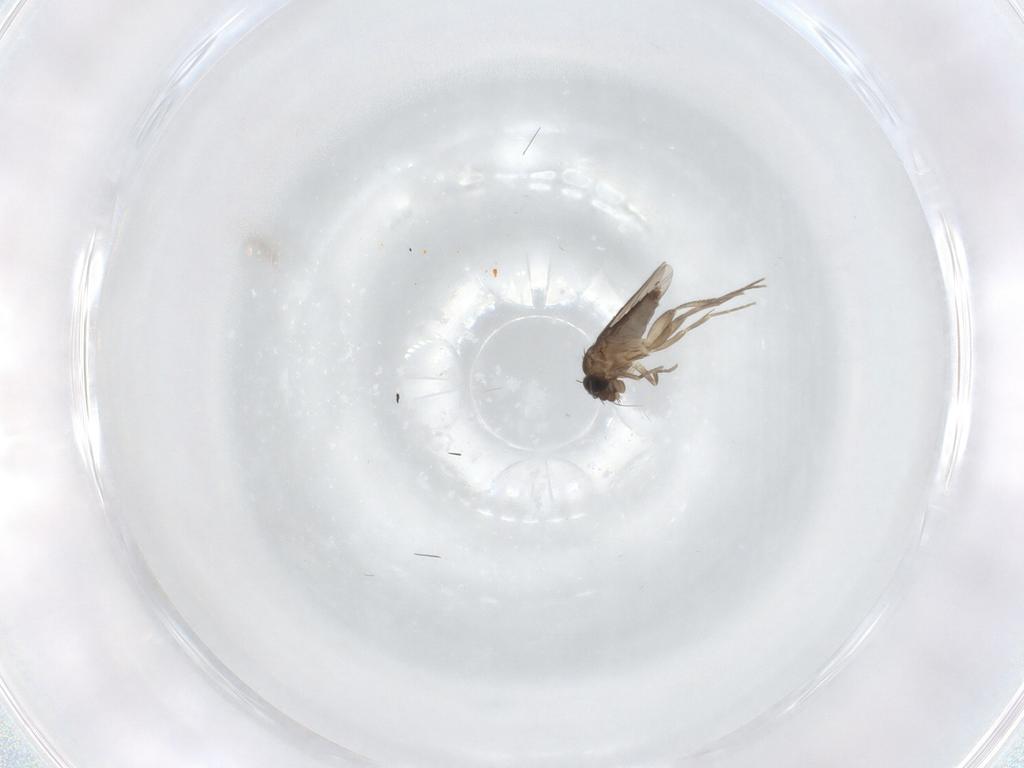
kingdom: Animalia
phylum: Arthropoda
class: Insecta
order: Diptera
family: Phoridae
